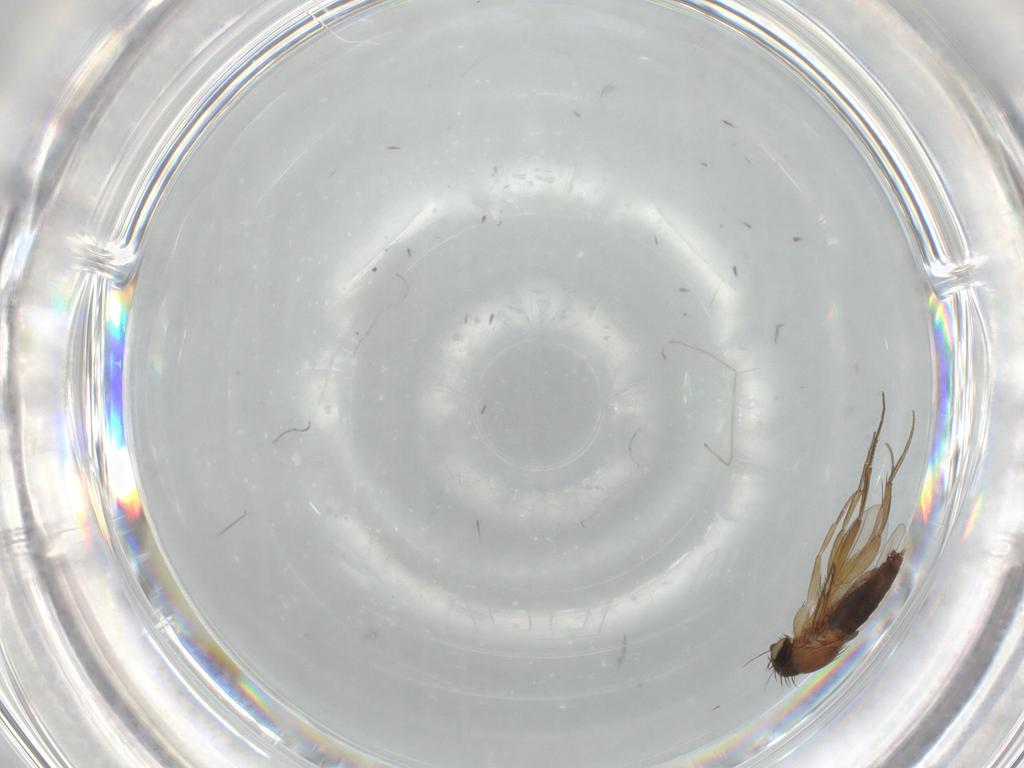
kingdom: Animalia
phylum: Arthropoda
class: Insecta
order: Diptera
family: Phoridae
